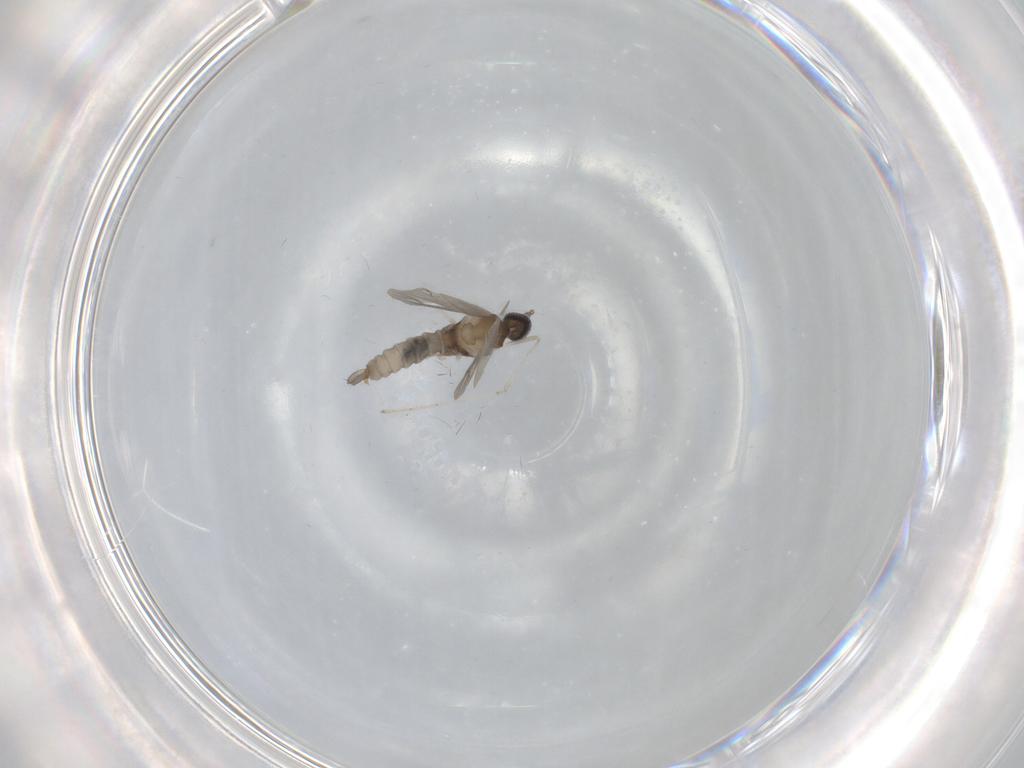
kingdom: Animalia
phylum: Arthropoda
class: Insecta
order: Diptera
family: Cecidomyiidae
